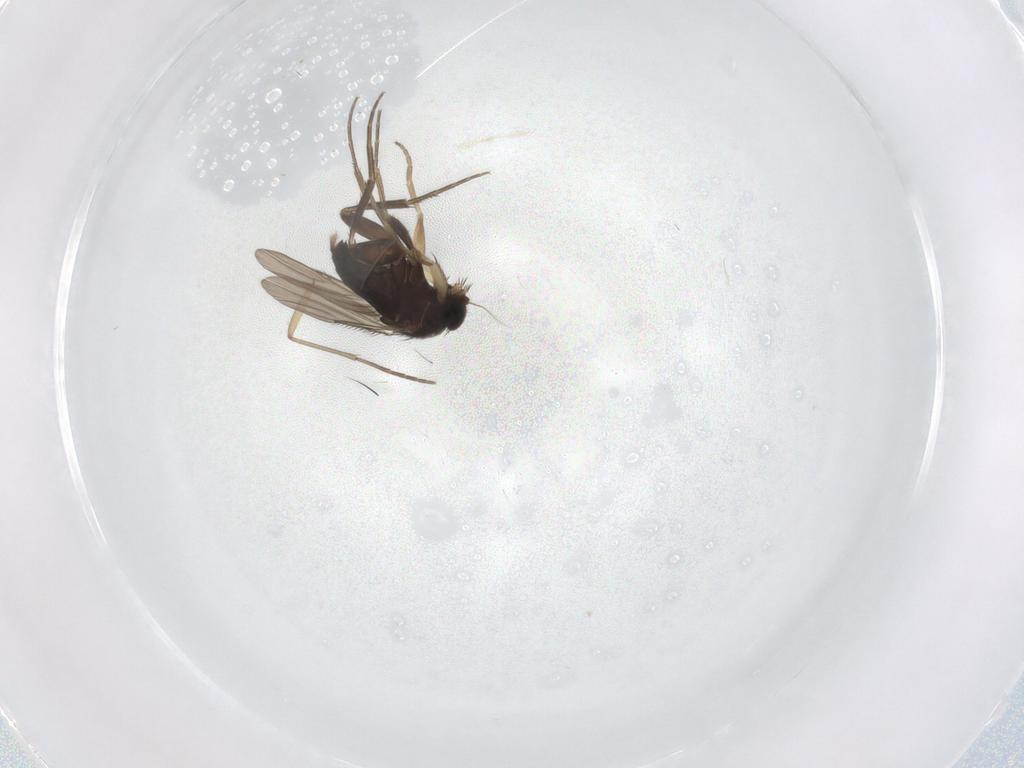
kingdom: Animalia
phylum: Arthropoda
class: Insecta
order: Diptera
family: Phoridae
